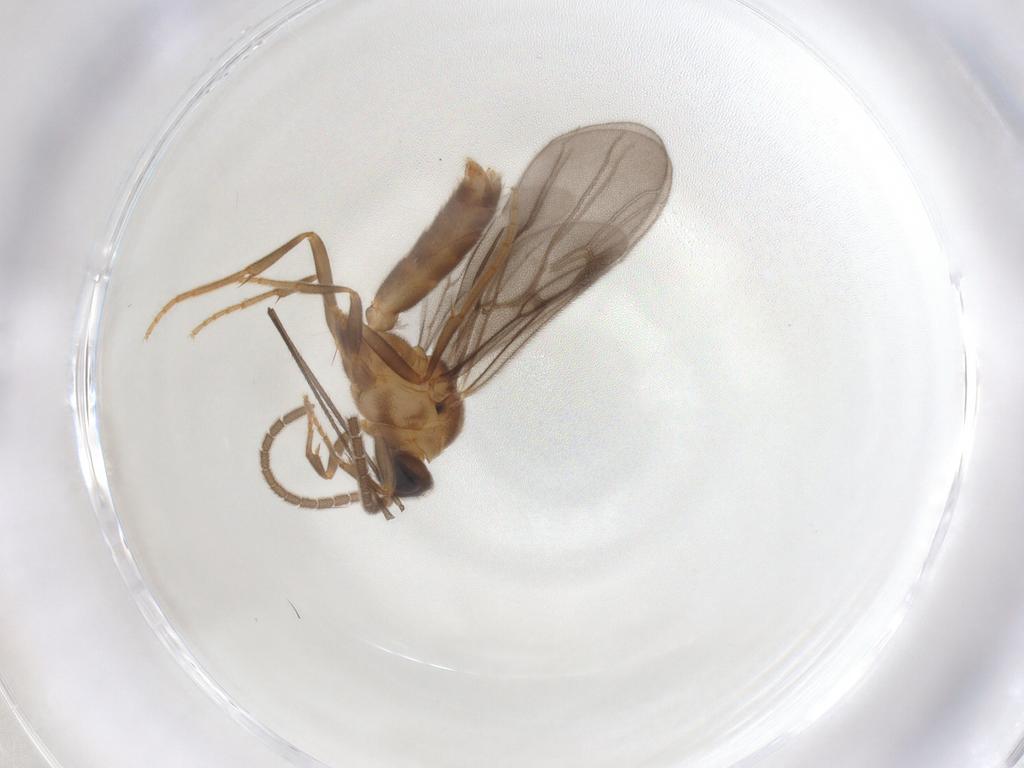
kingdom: Animalia
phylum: Arthropoda
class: Insecta
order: Hymenoptera
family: Formicidae
